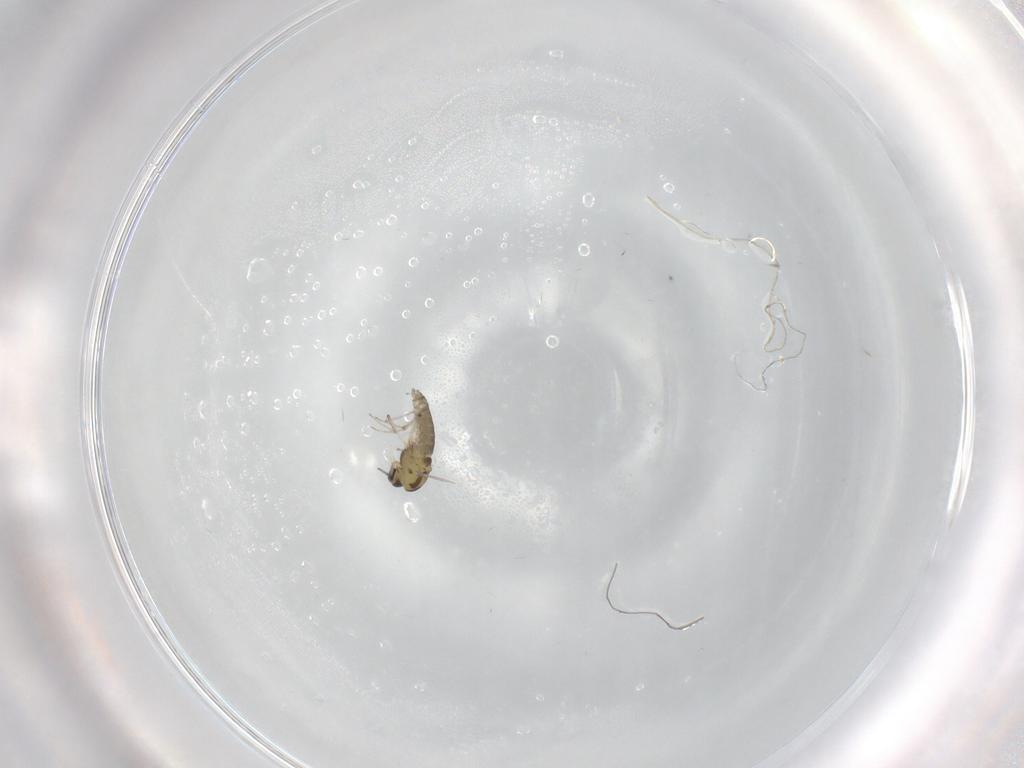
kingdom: Animalia
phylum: Arthropoda
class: Insecta
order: Diptera
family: Chironomidae
